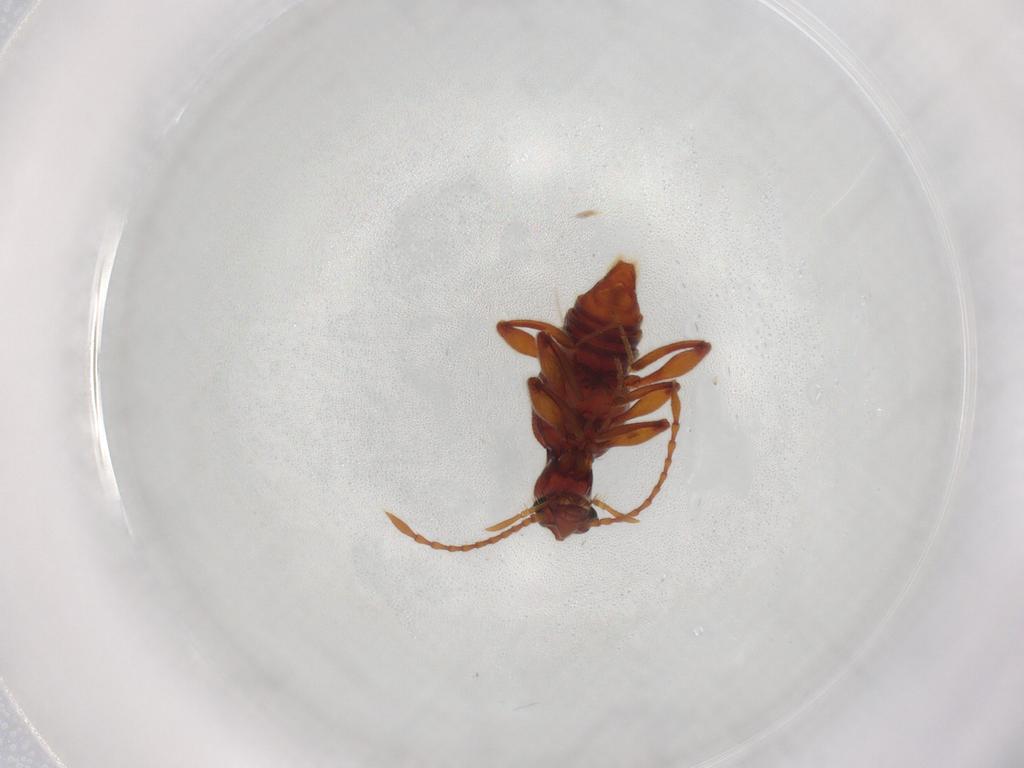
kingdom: Animalia
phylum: Arthropoda
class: Insecta
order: Coleoptera
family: Staphylinidae
